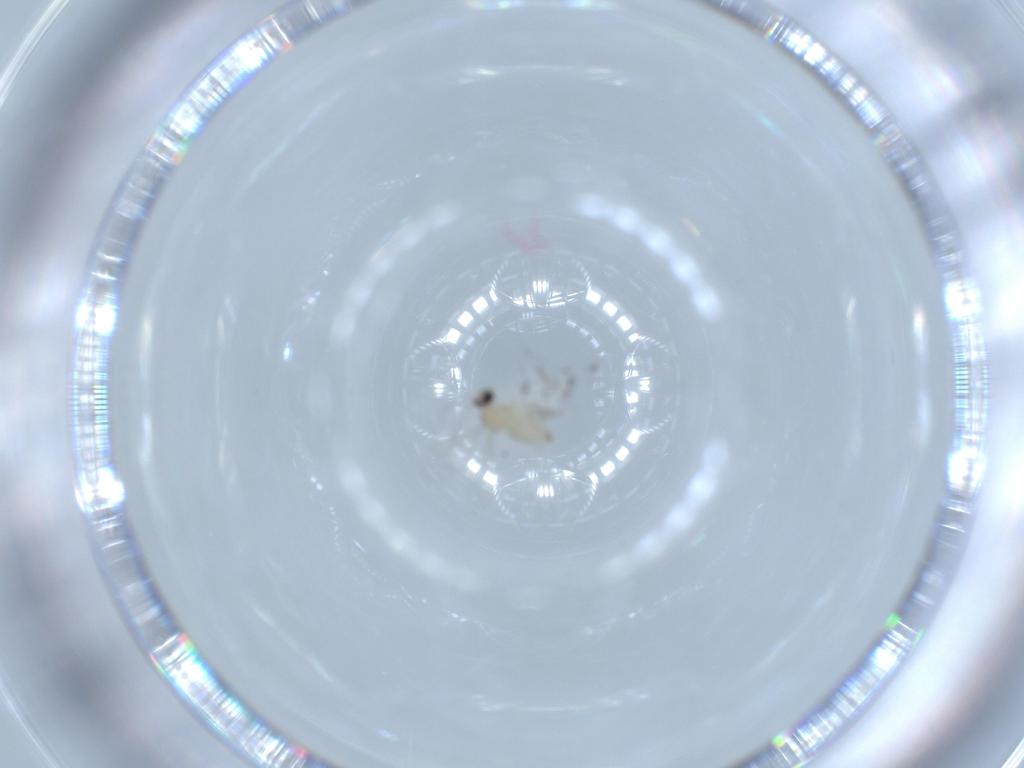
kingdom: Animalia
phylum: Arthropoda
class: Insecta
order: Diptera
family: Cecidomyiidae
